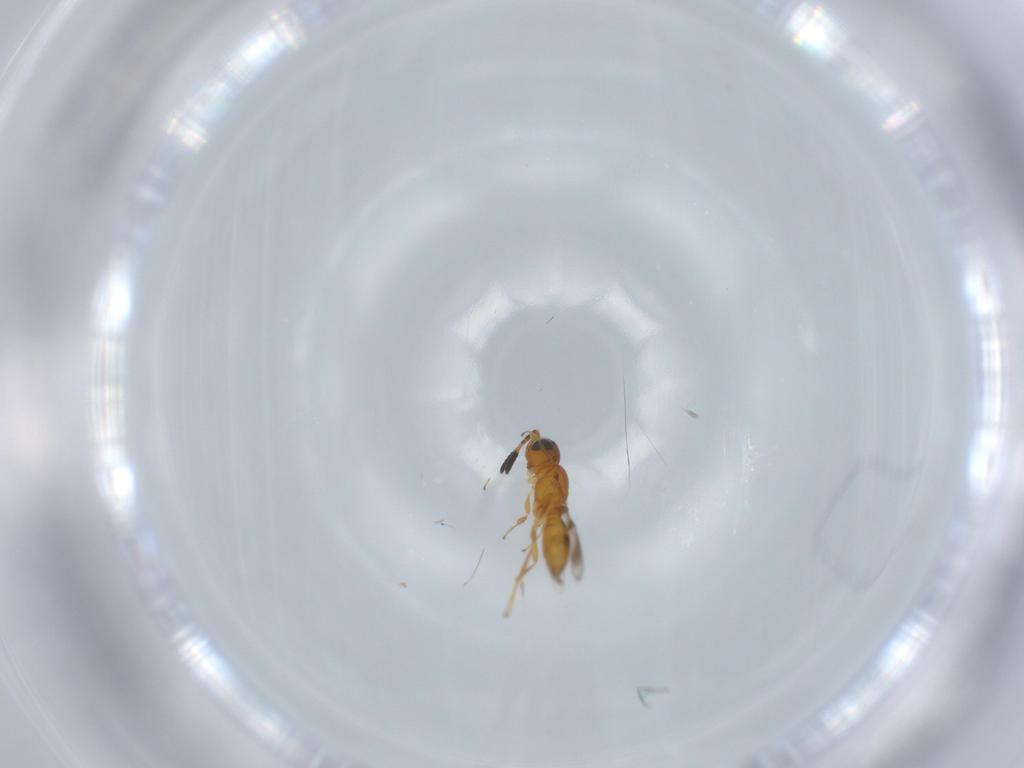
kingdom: Animalia
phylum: Arthropoda
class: Insecta
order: Hymenoptera
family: Scelionidae
